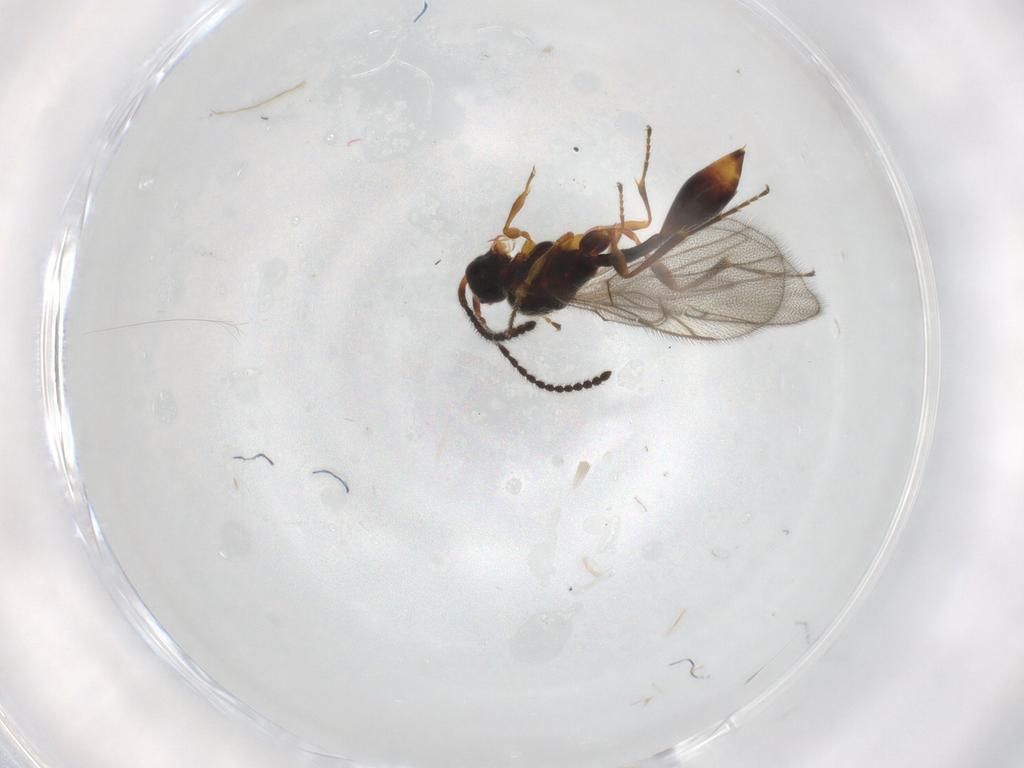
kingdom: Animalia
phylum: Arthropoda
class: Insecta
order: Hymenoptera
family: Diapriidae
